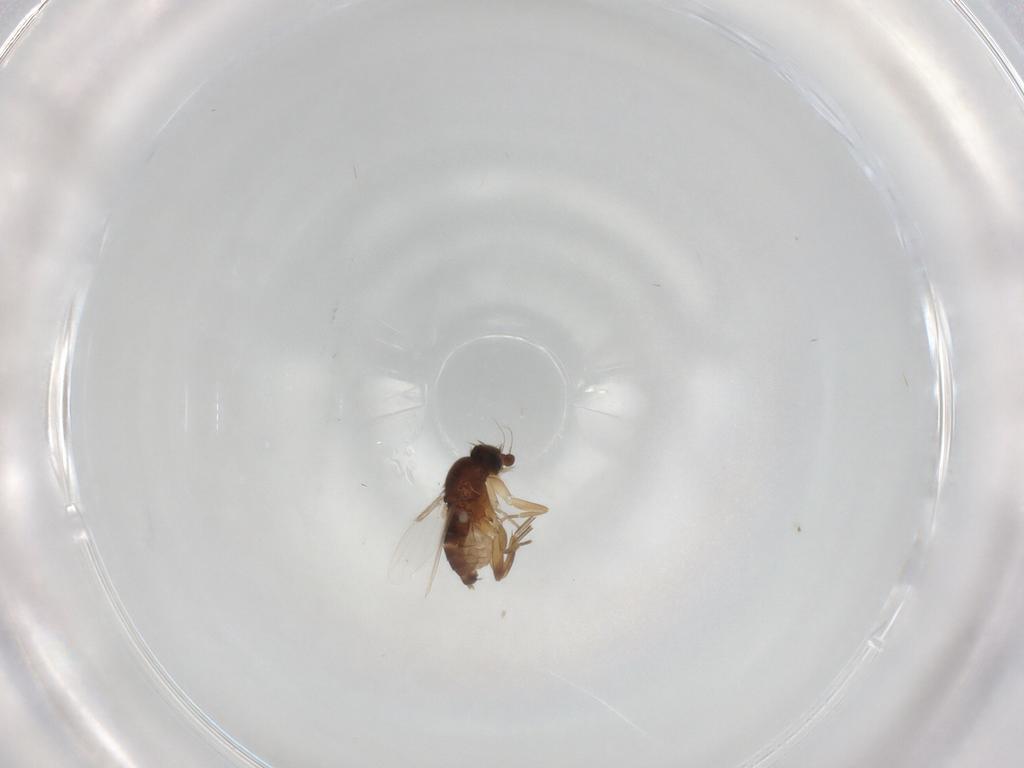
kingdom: Animalia
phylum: Arthropoda
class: Insecta
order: Diptera
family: Phoridae
